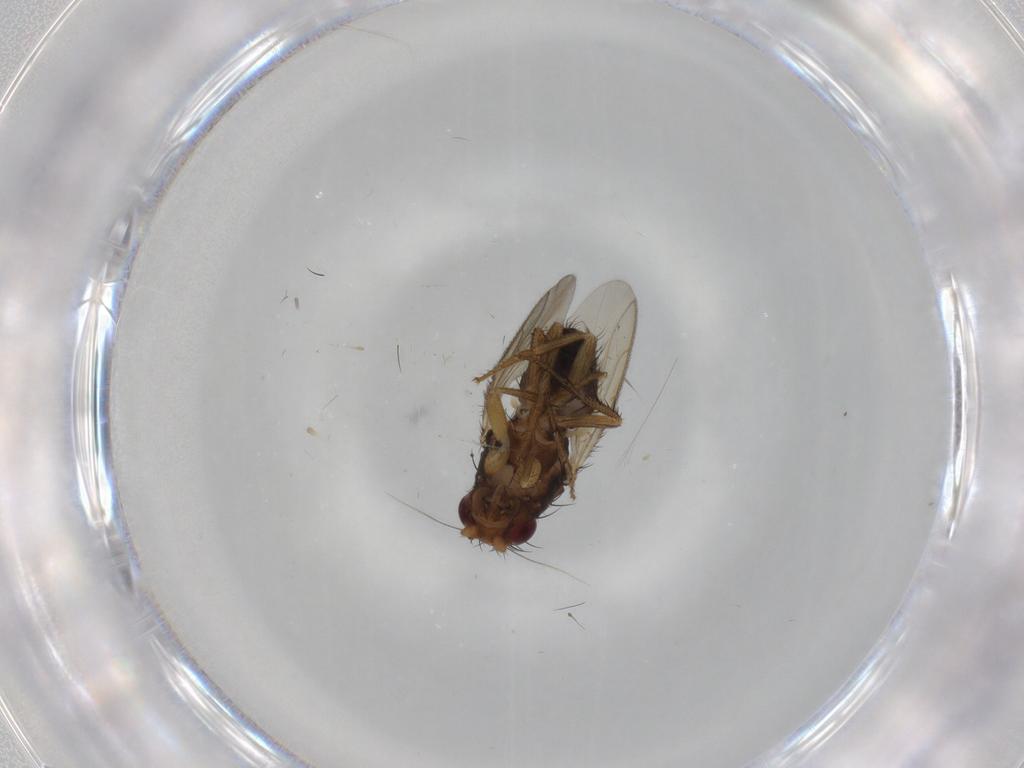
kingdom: Animalia
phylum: Arthropoda
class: Insecta
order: Diptera
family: Sphaeroceridae
